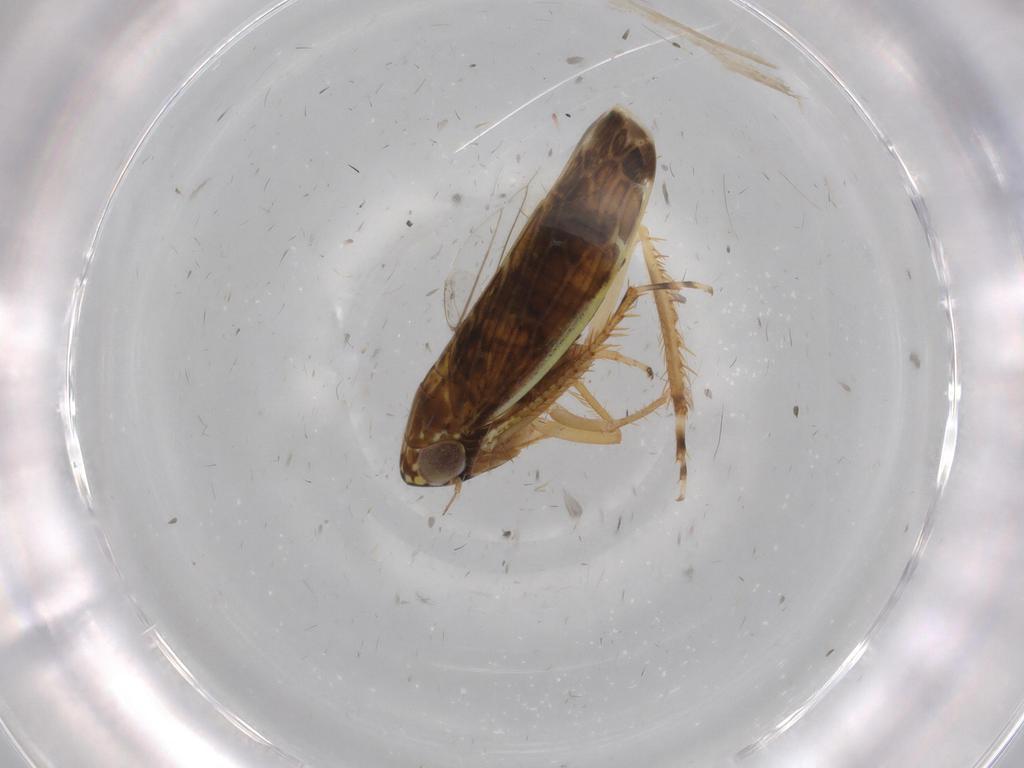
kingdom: Animalia
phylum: Arthropoda
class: Insecta
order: Hemiptera
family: Cicadellidae
